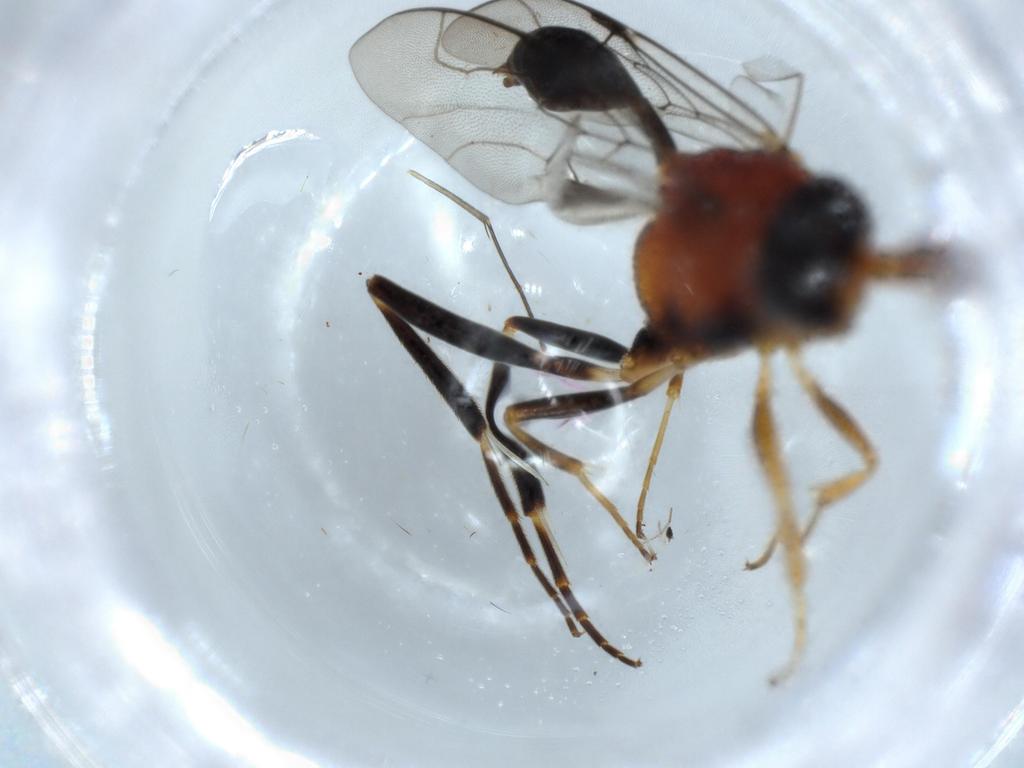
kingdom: Animalia
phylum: Arthropoda
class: Insecta
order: Hymenoptera
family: Evaniidae
